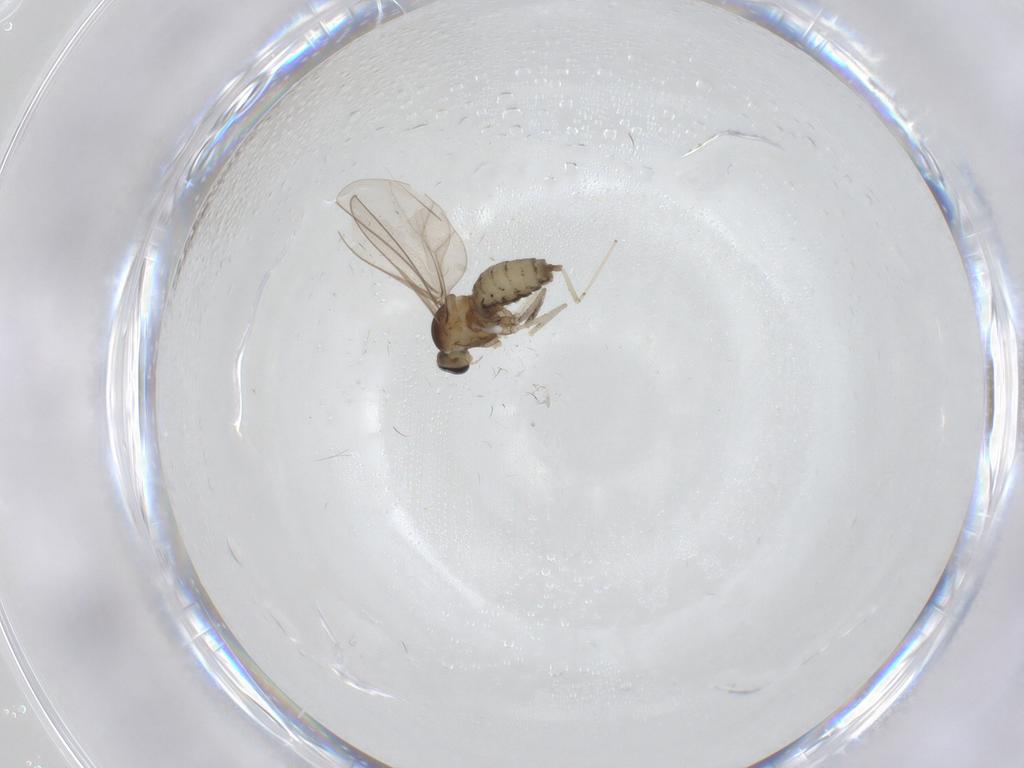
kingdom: Animalia
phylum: Arthropoda
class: Insecta
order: Diptera
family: Cecidomyiidae
